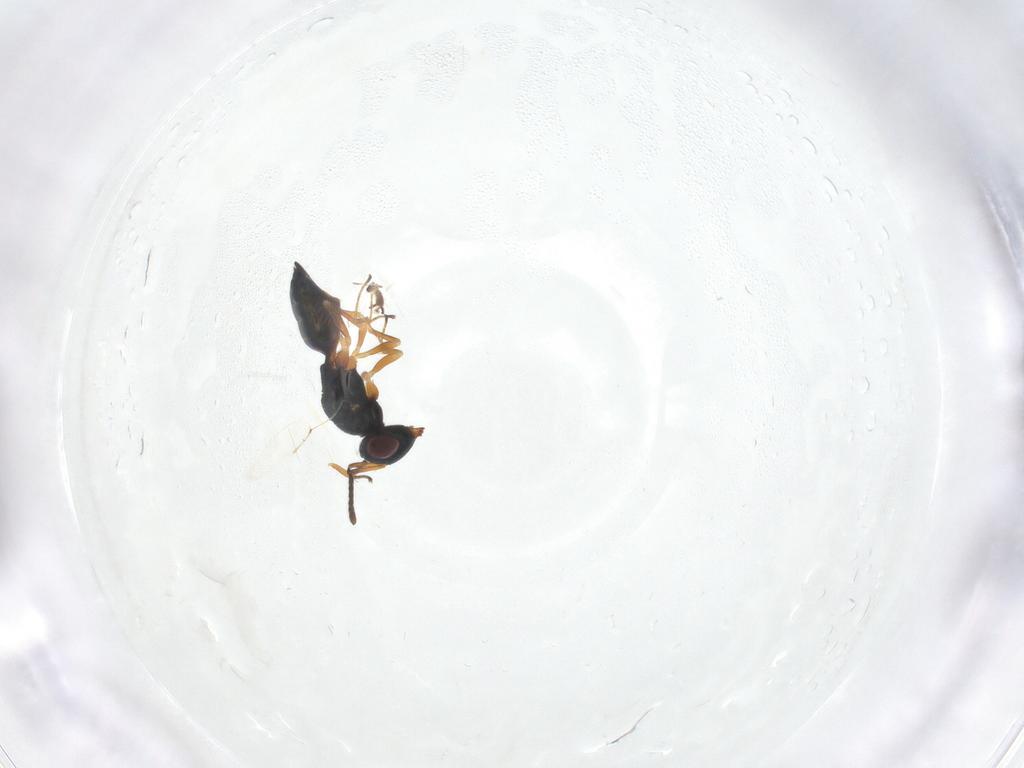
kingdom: Animalia
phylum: Arthropoda
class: Insecta
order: Hymenoptera
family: Pteromalidae
